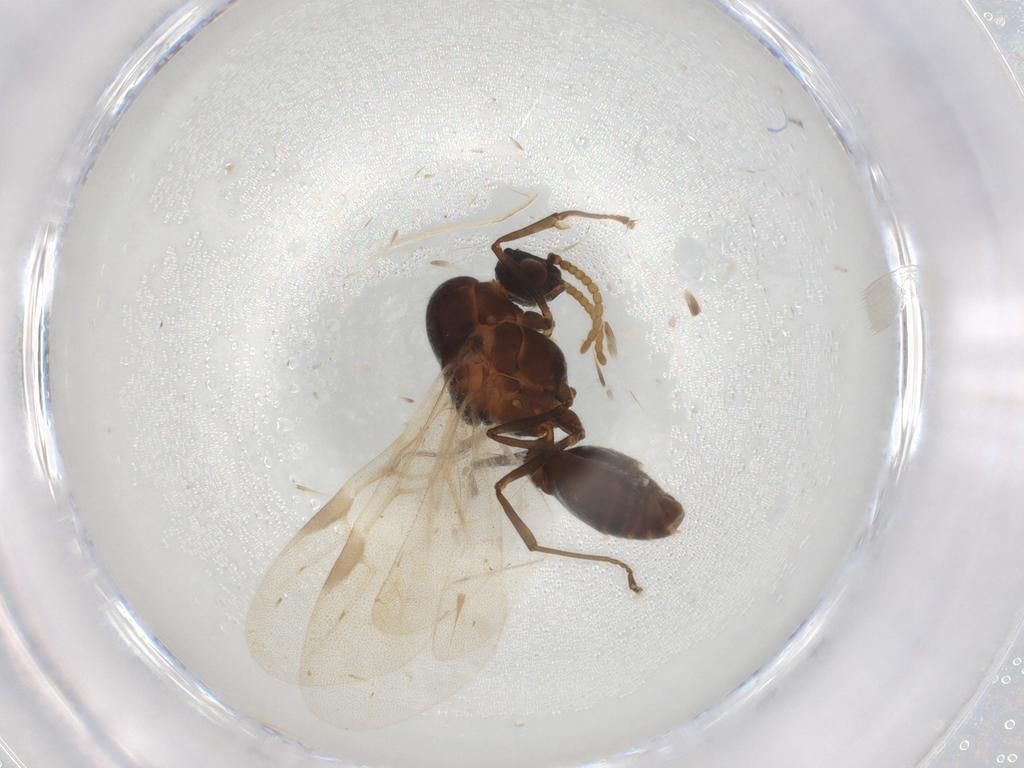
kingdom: Animalia
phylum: Arthropoda
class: Insecta
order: Hymenoptera
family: Formicidae
